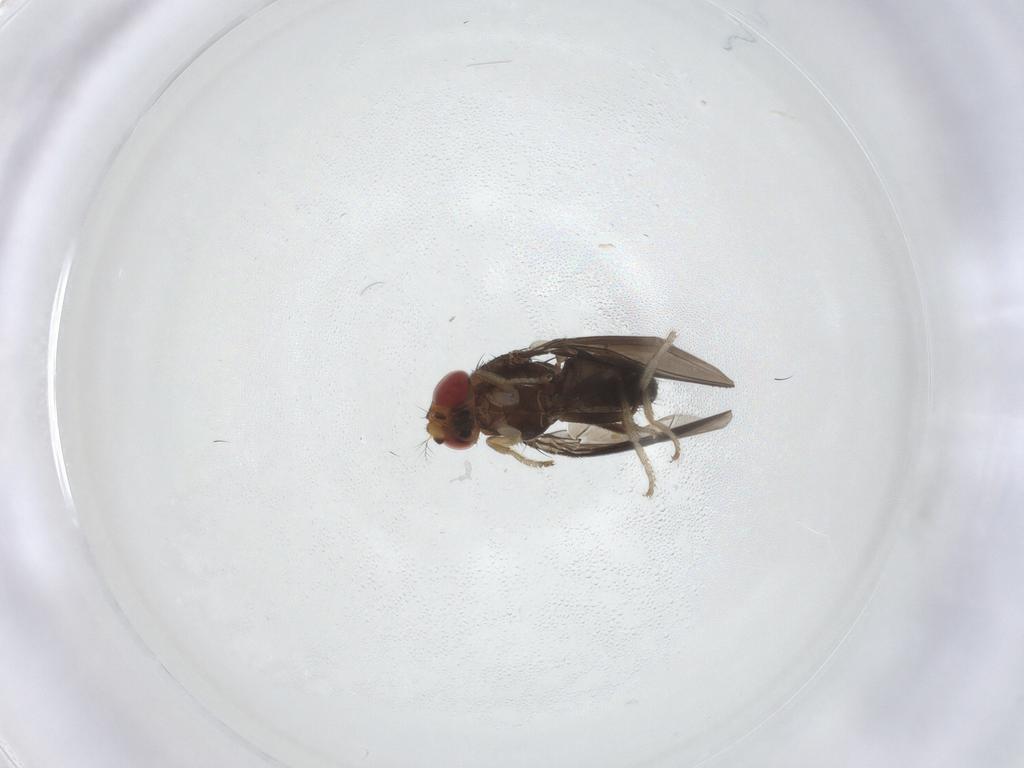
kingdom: Animalia
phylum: Arthropoda
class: Insecta
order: Diptera
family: Drosophilidae
